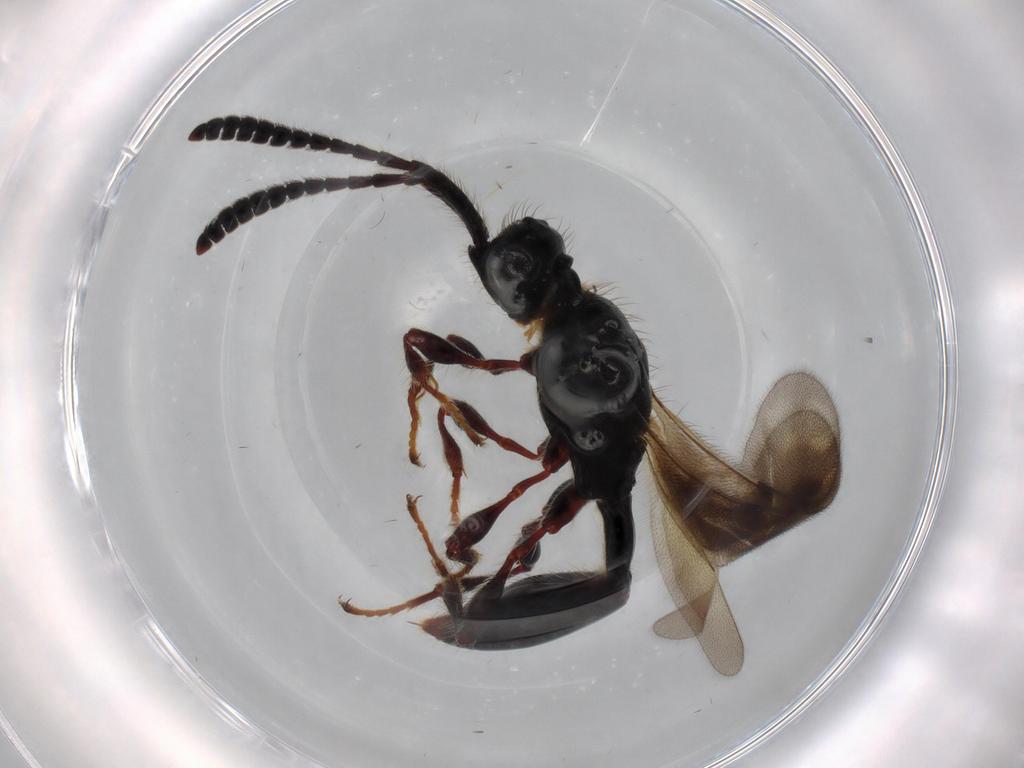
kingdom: Animalia
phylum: Arthropoda
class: Insecta
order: Hymenoptera
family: Diapriidae
